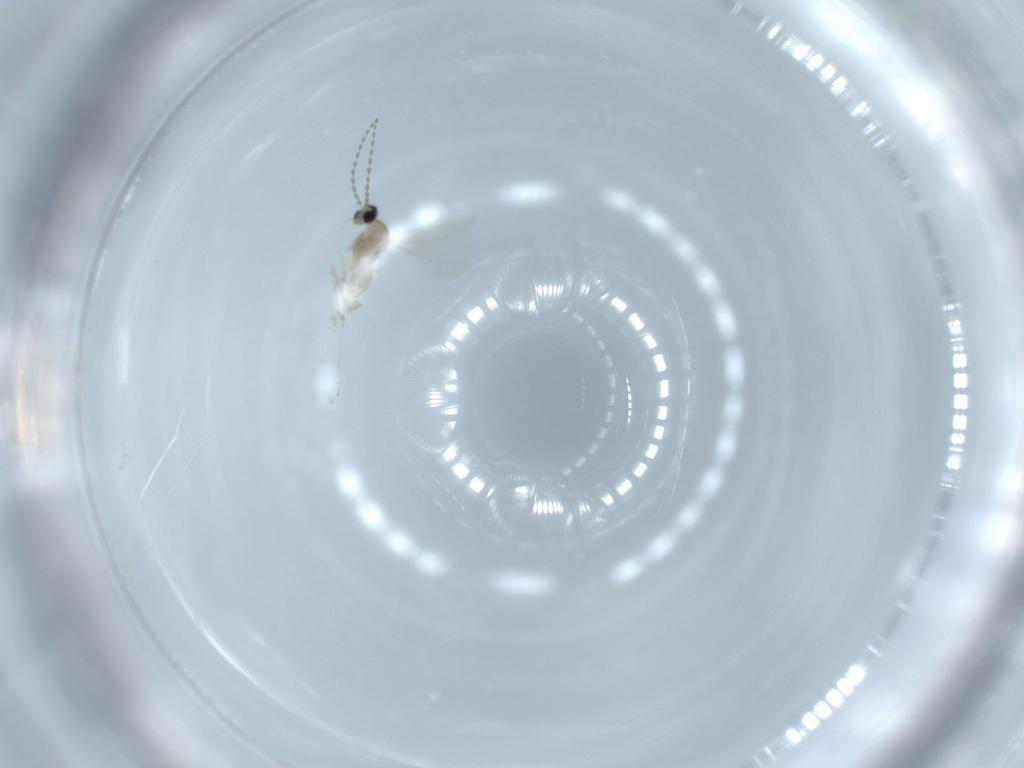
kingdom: Animalia
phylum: Arthropoda
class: Insecta
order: Diptera
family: Cecidomyiidae
